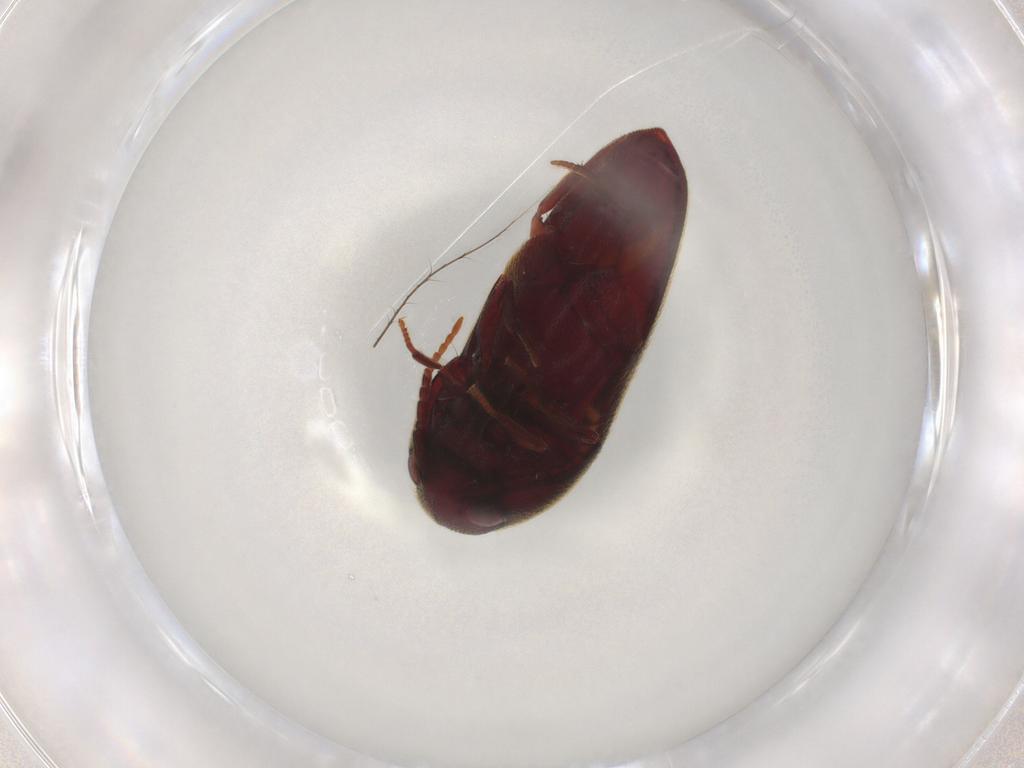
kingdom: Animalia
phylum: Arthropoda
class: Insecta
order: Coleoptera
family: Eucnemidae
